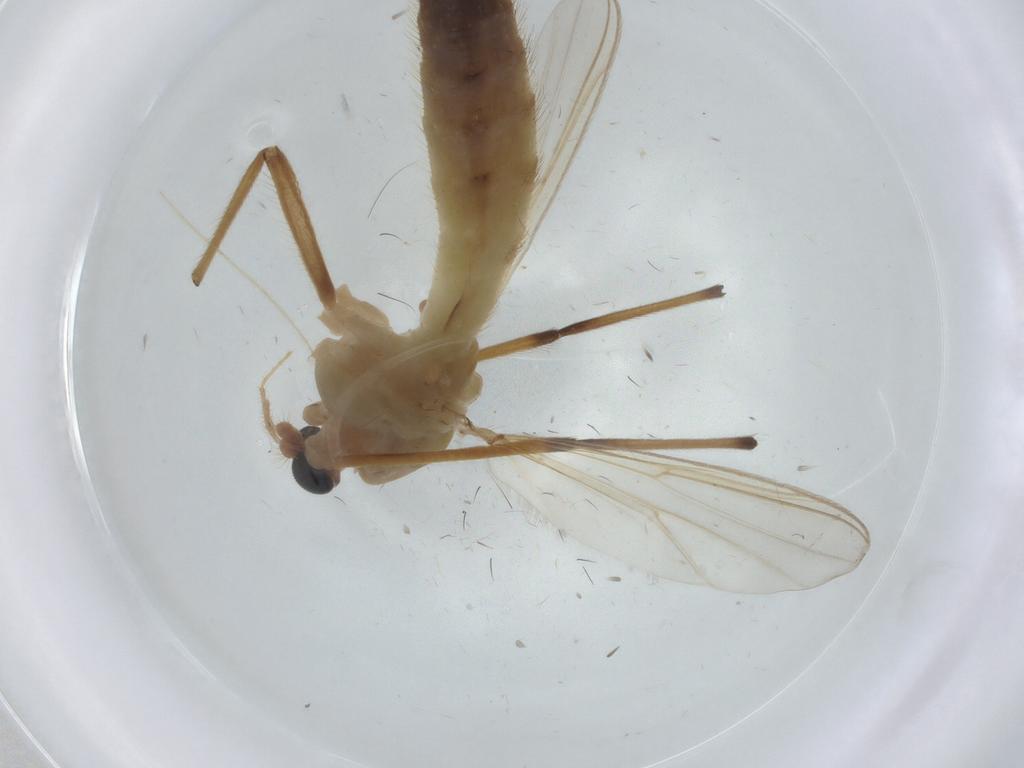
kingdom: Animalia
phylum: Arthropoda
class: Insecta
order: Diptera
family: Chironomidae
